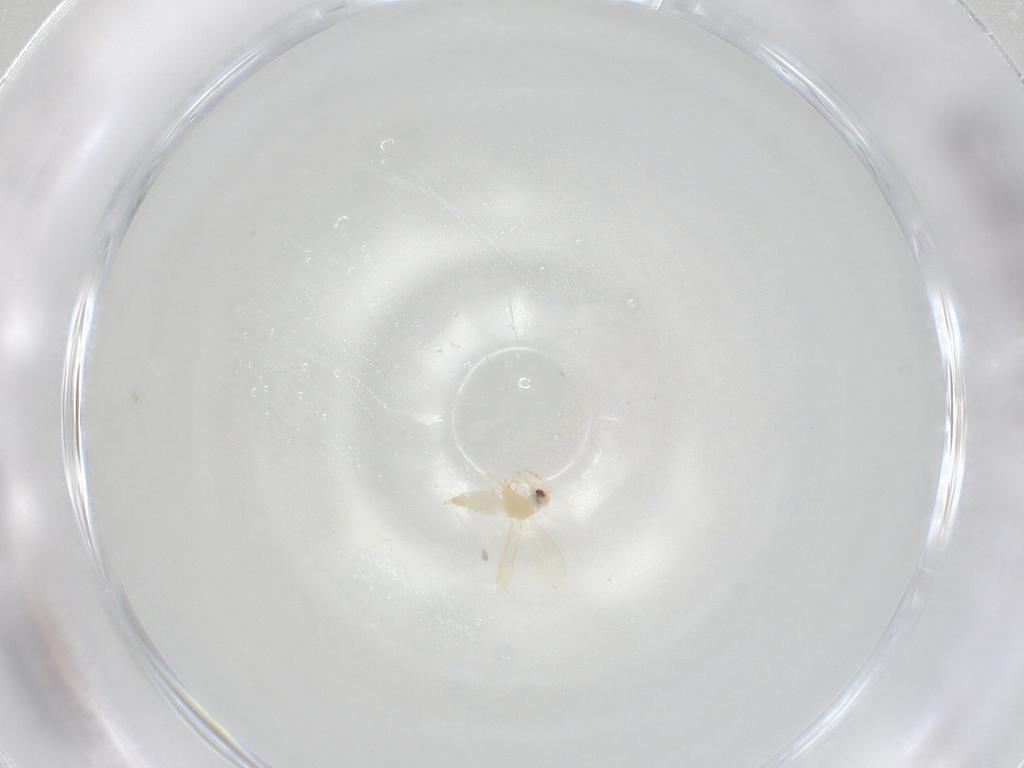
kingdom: Animalia
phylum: Arthropoda
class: Insecta
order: Hemiptera
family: Aleyrodidae
